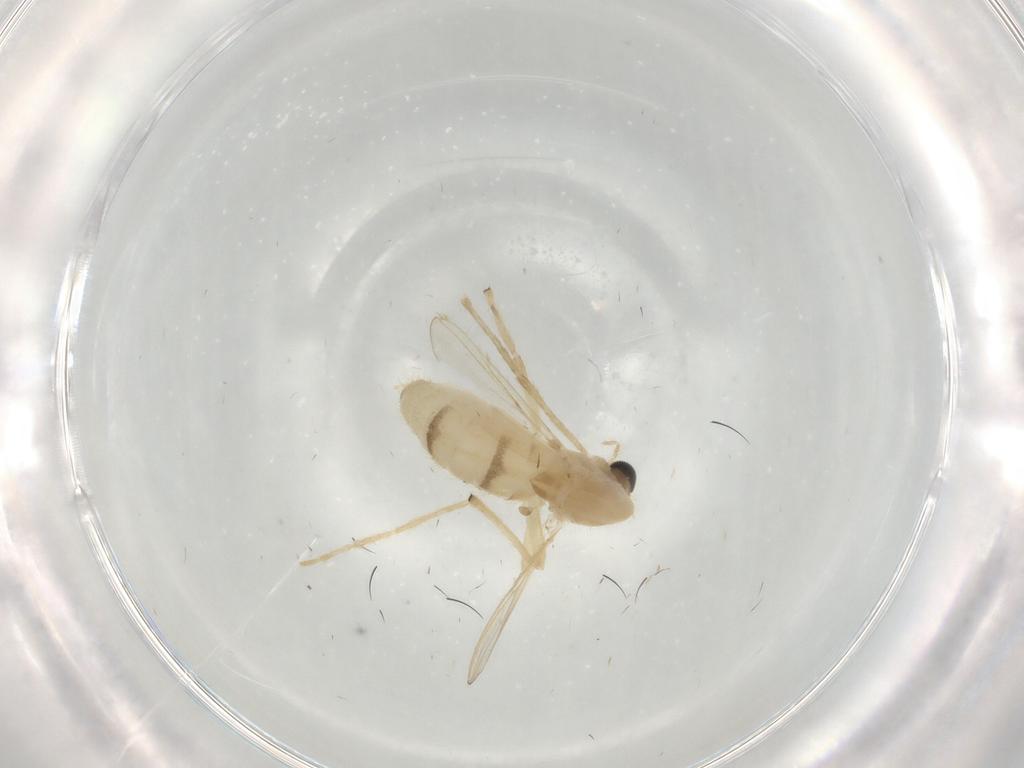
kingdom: Animalia
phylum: Arthropoda
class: Insecta
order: Diptera
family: Chironomidae
